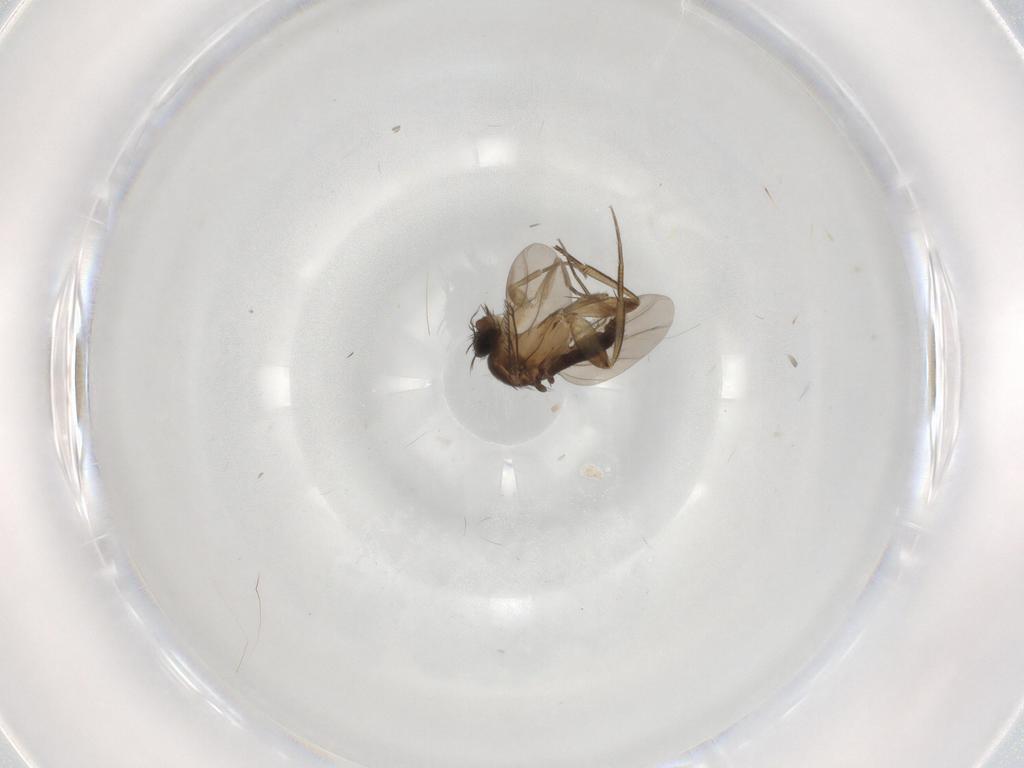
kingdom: Animalia
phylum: Arthropoda
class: Insecta
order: Diptera
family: Phoridae
